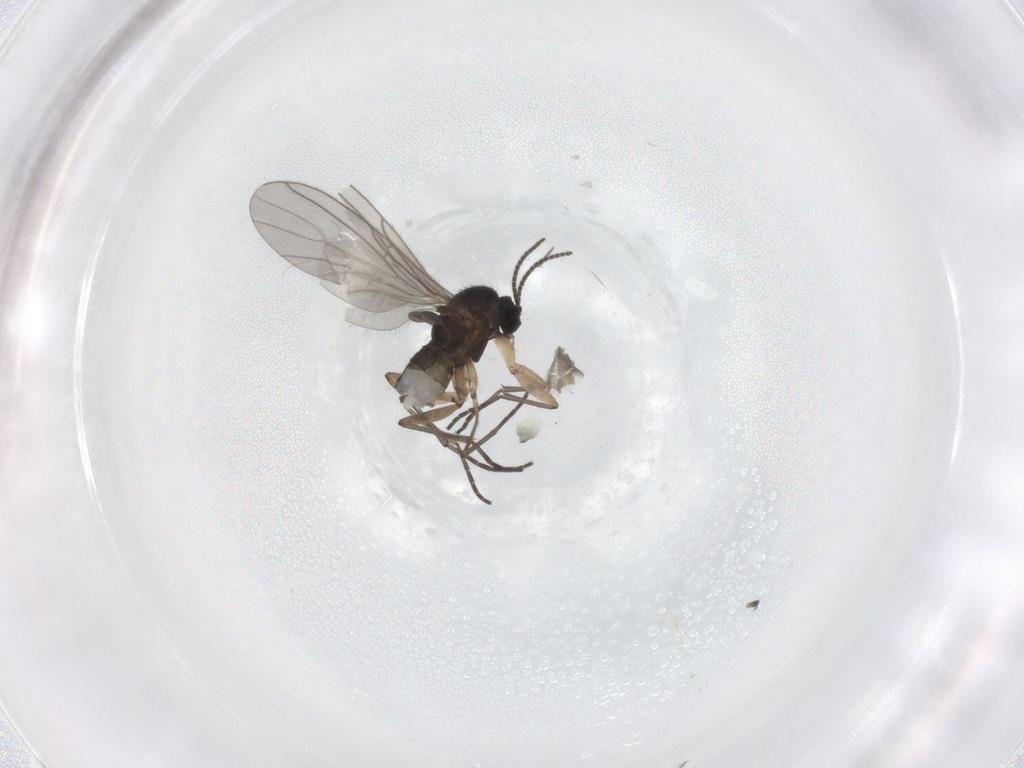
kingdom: Animalia
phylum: Arthropoda
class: Insecta
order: Diptera
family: Sciaridae
